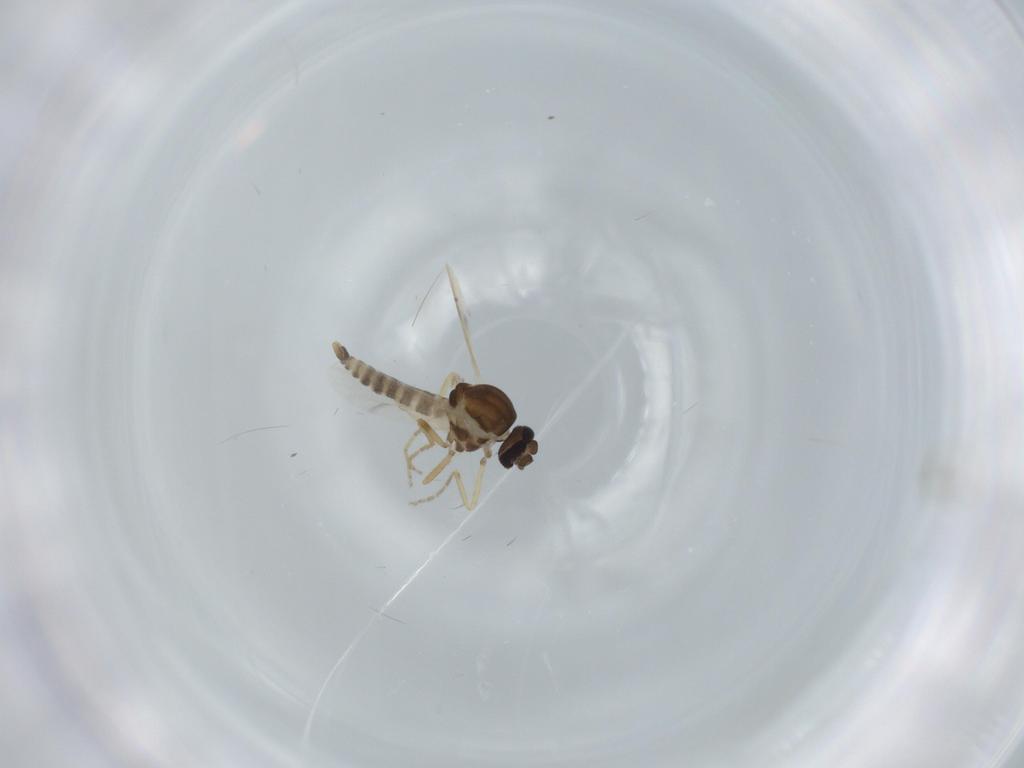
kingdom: Animalia
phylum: Arthropoda
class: Insecta
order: Diptera
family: Ceratopogonidae
